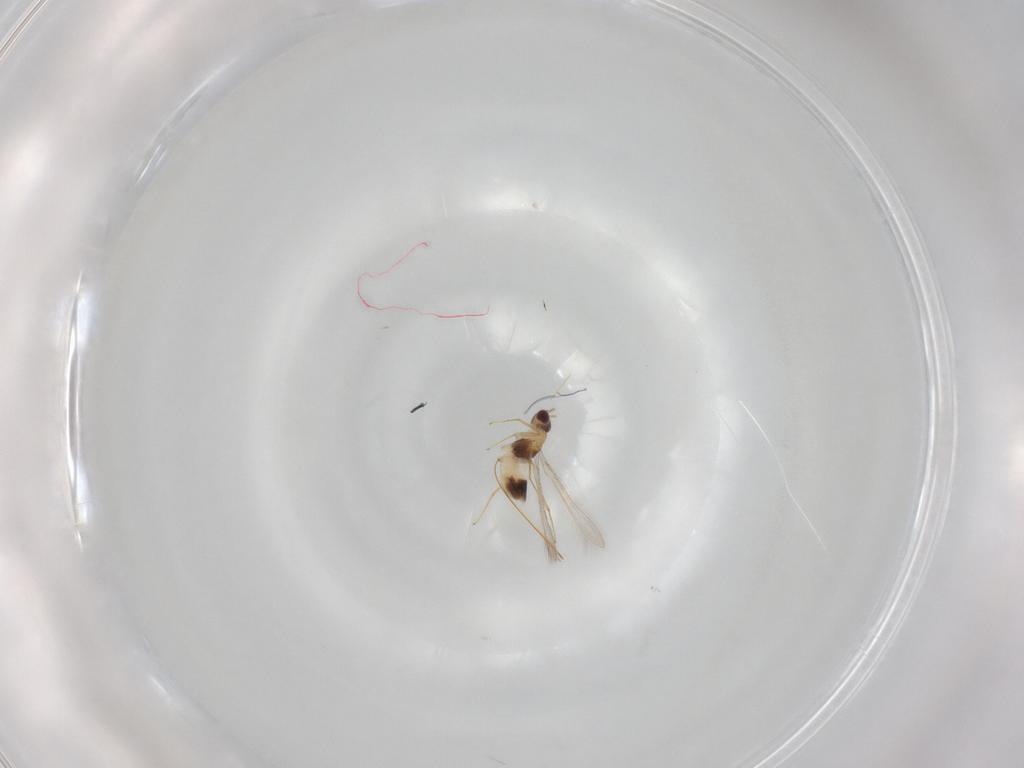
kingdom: Animalia
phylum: Arthropoda
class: Insecta
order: Hymenoptera
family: Mymaridae
